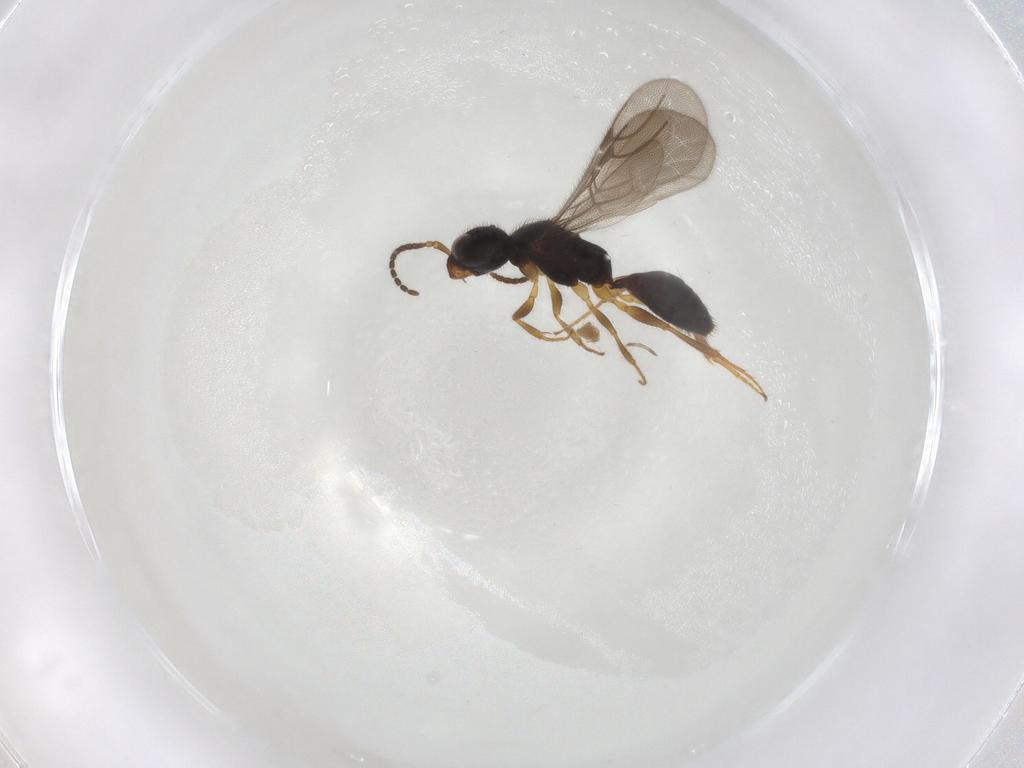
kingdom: Animalia
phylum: Arthropoda
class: Insecta
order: Hymenoptera
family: Bethylidae
